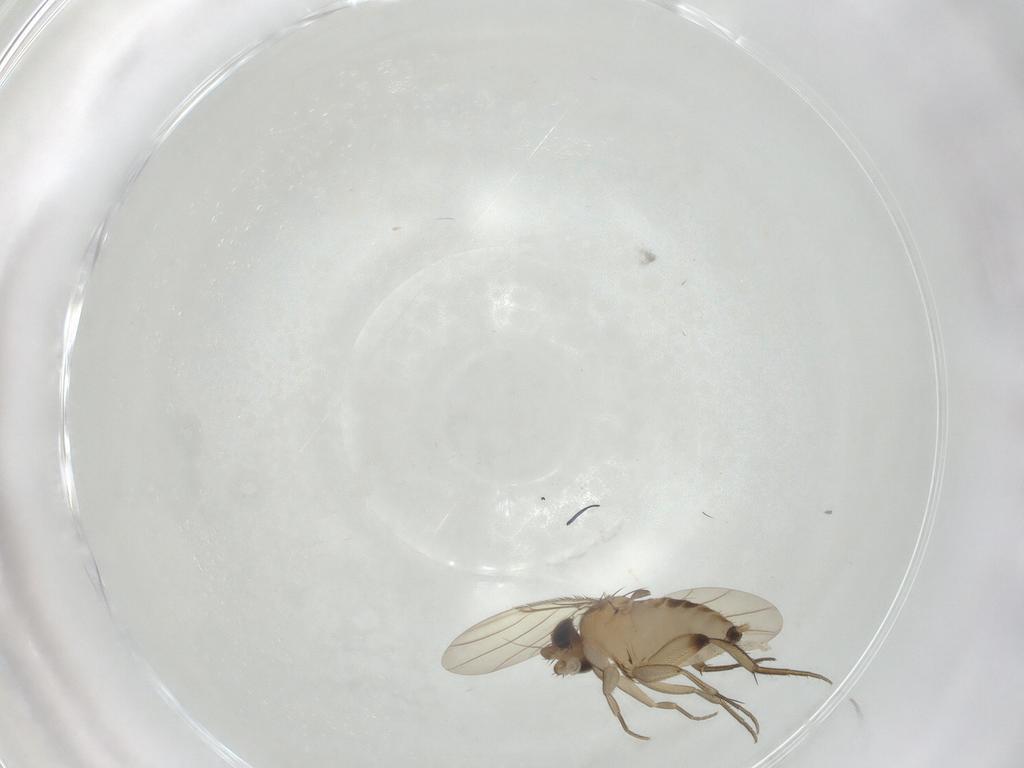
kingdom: Animalia
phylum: Arthropoda
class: Insecta
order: Diptera
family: Phoridae
